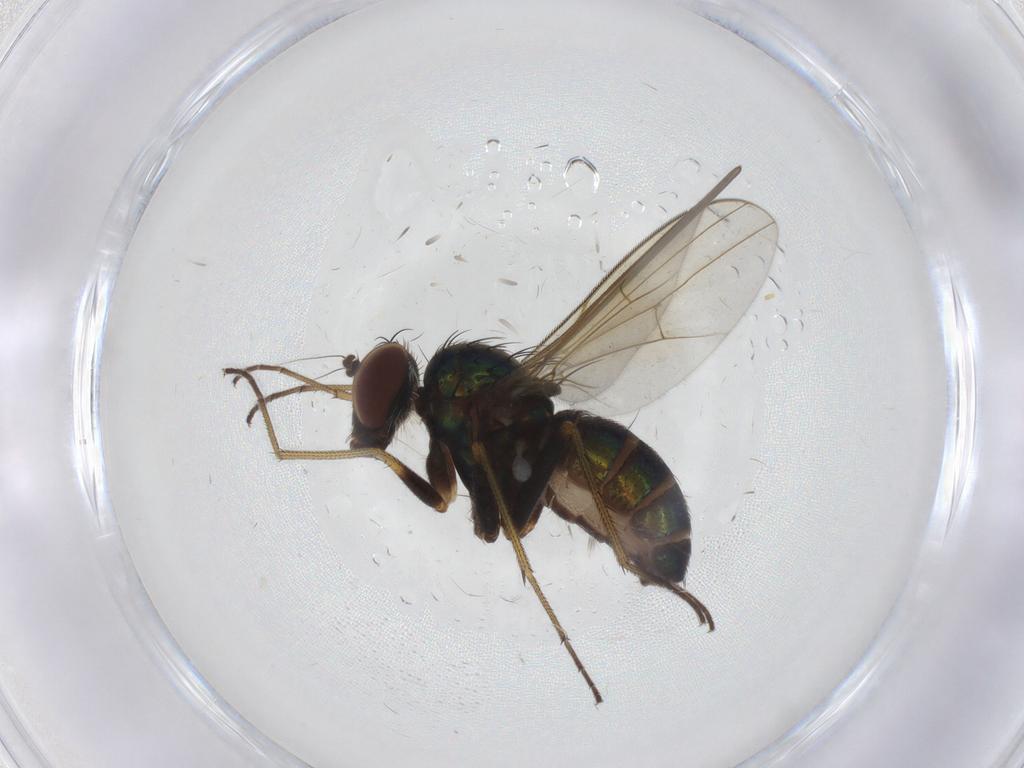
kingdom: Animalia
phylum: Arthropoda
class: Insecta
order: Diptera
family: Dolichopodidae
